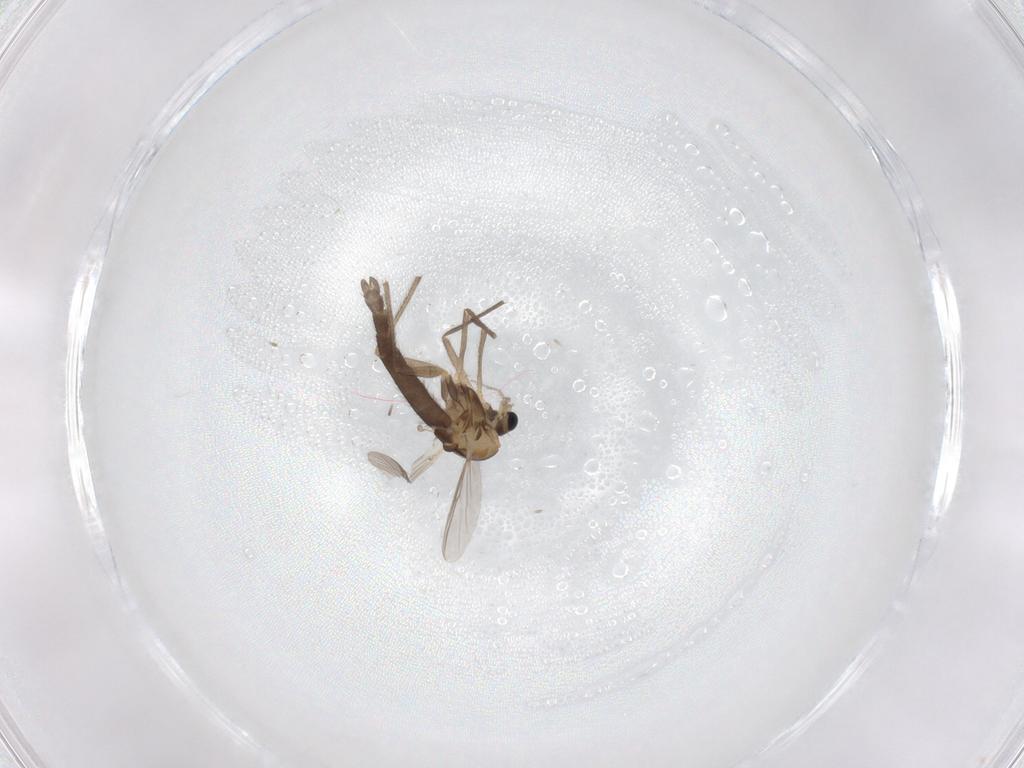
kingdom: Animalia
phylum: Arthropoda
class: Insecta
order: Diptera
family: Chironomidae
